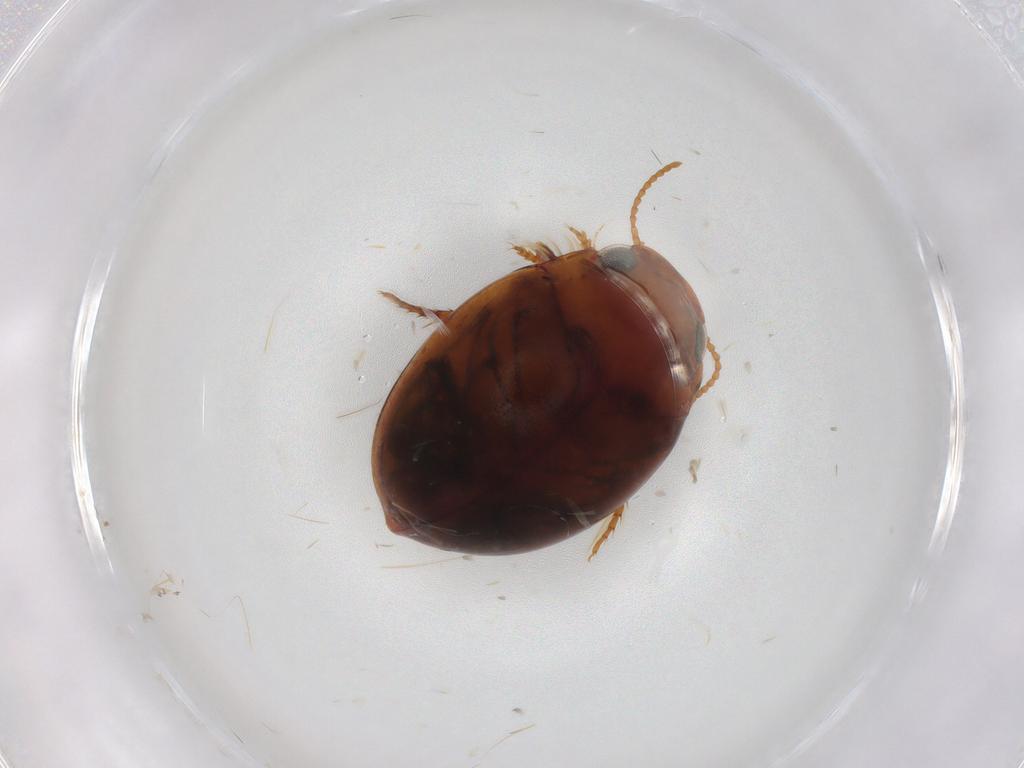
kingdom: Animalia
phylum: Arthropoda
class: Insecta
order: Coleoptera
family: Dytiscidae
